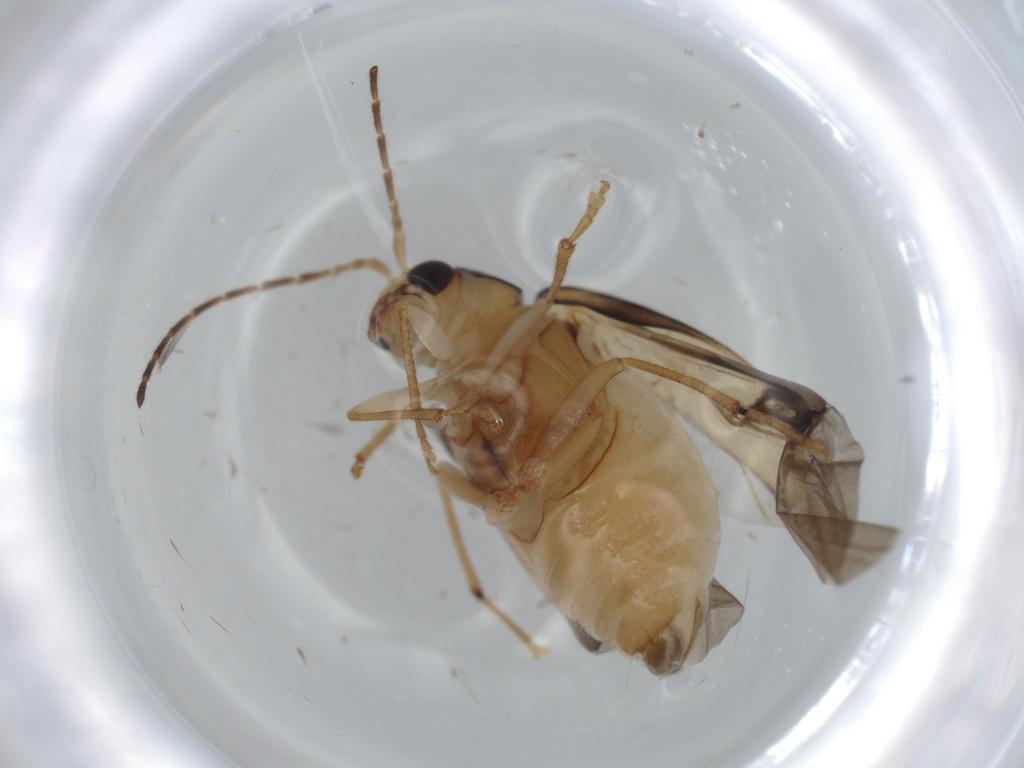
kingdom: Animalia
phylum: Arthropoda
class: Insecta
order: Coleoptera
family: Chrysomelidae
